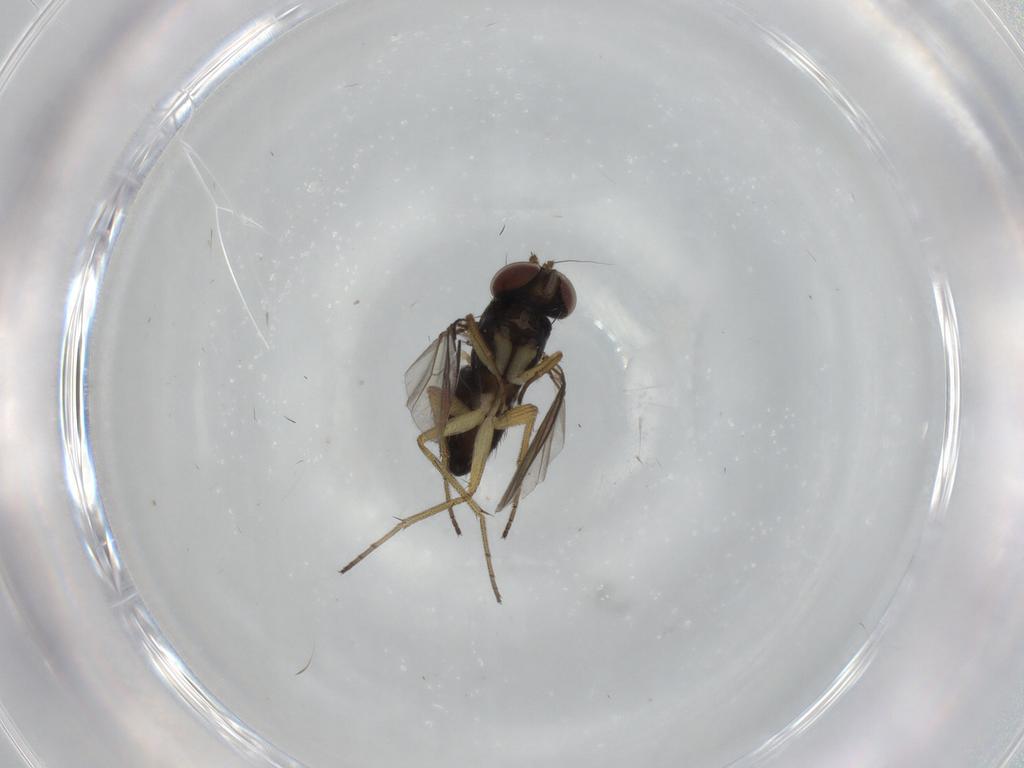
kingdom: Animalia
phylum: Arthropoda
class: Insecta
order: Diptera
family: Dolichopodidae
